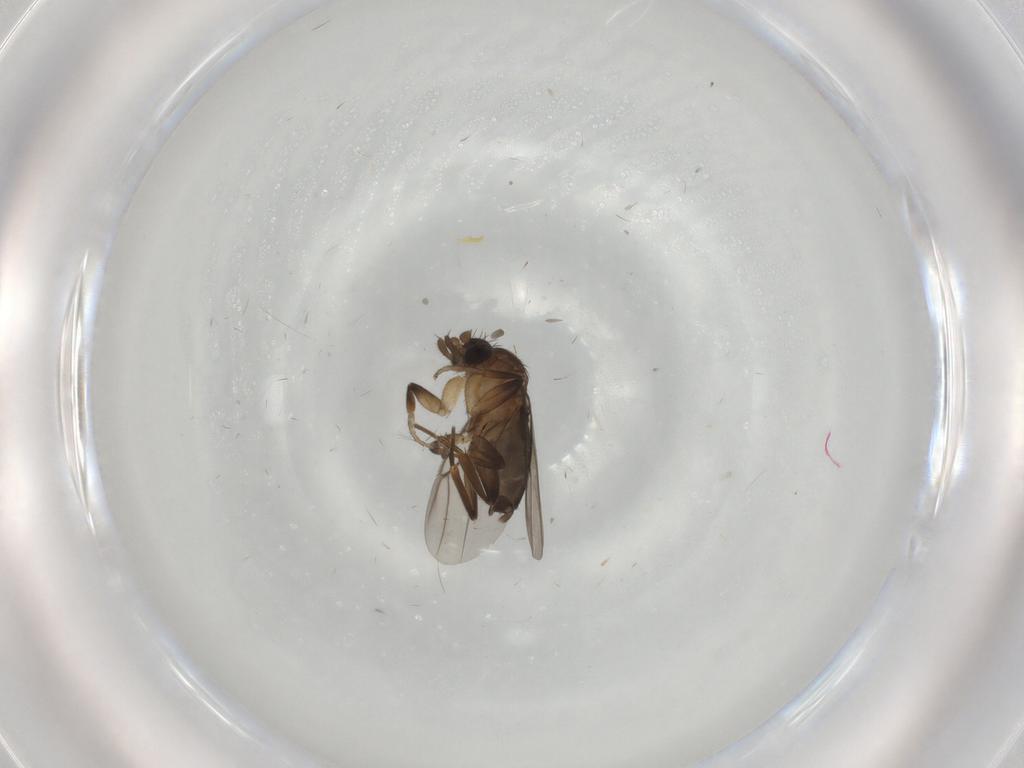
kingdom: Animalia
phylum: Arthropoda
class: Insecta
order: Diptera
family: Phoridae
